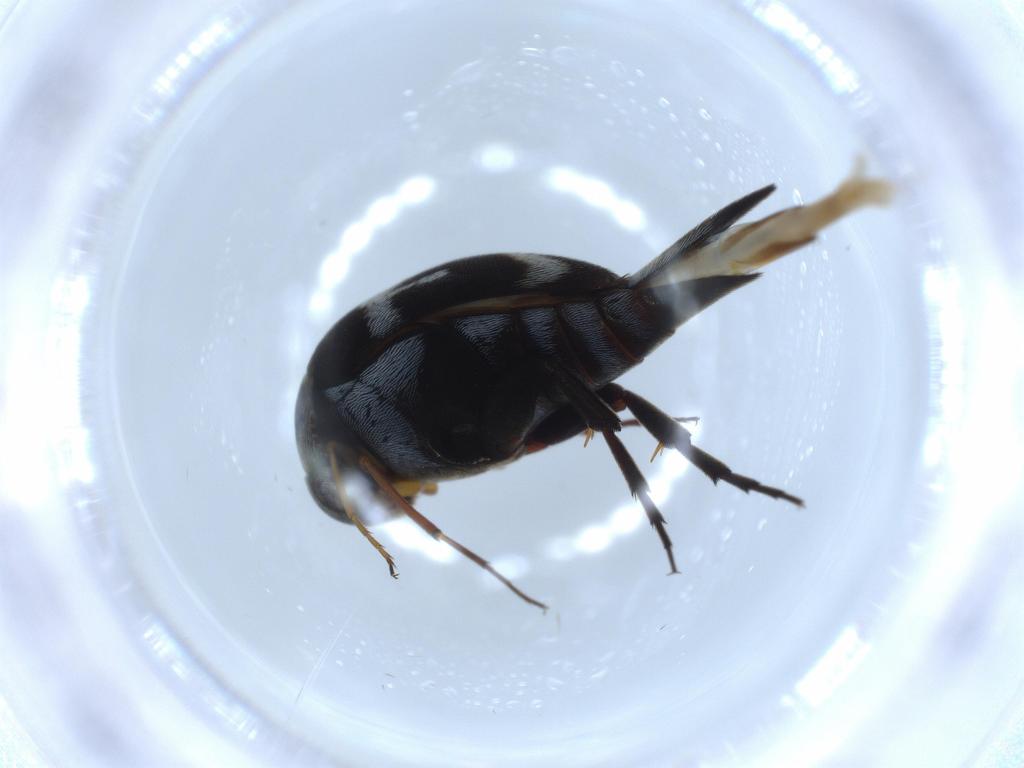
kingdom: Animalia
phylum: Arthropoda
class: Insecta
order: Coleoptera
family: Mordellidae
